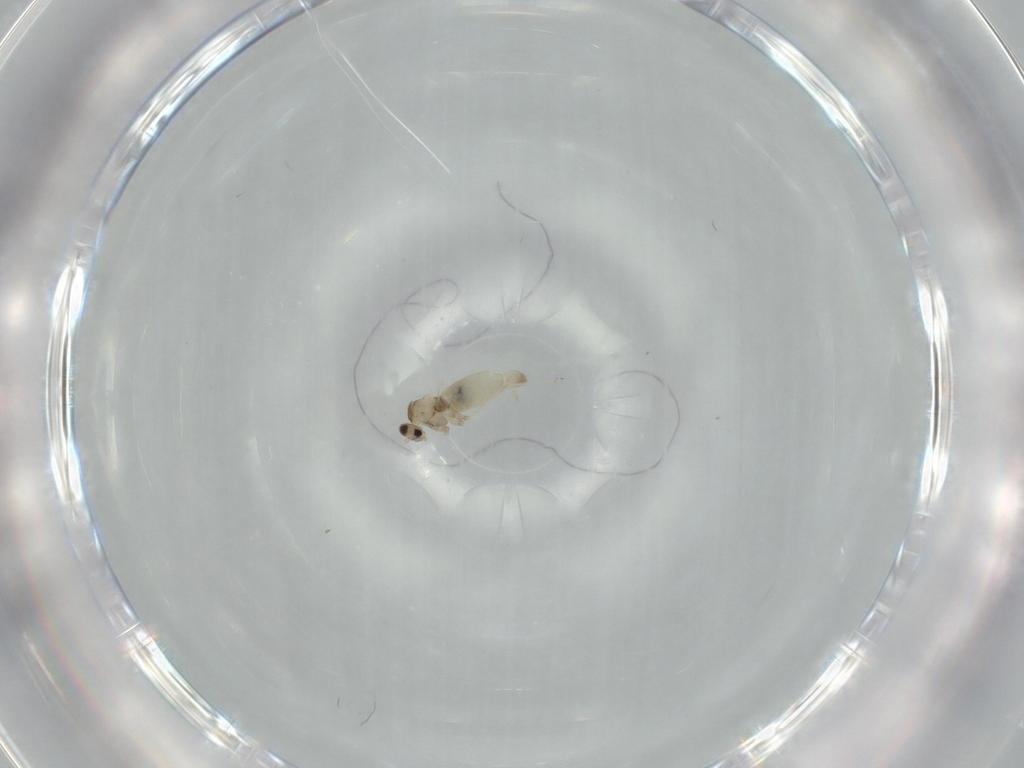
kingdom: Animalia
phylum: Arthropoda
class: Insecta
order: Diptera
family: Cecidomyiidae
